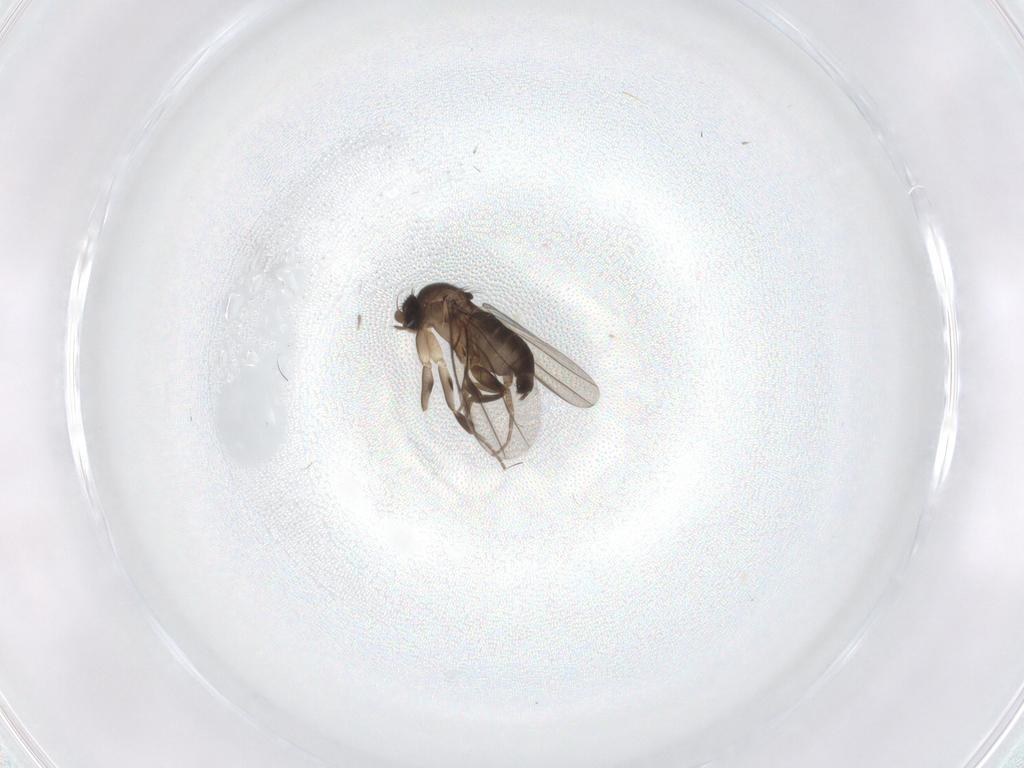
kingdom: Animalia
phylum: Arthropoda
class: Insecta
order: Diptera
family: Phoridae
